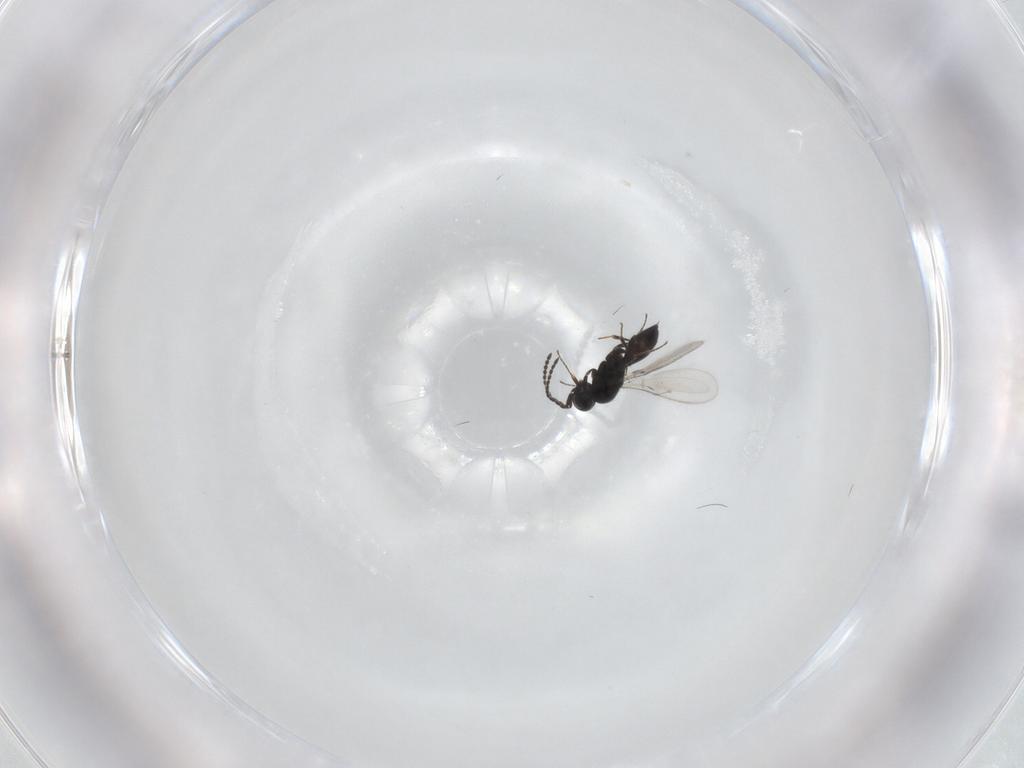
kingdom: Animalia
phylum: Arthropoda
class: Insecta
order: Hymenoptera
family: Scelionidae
